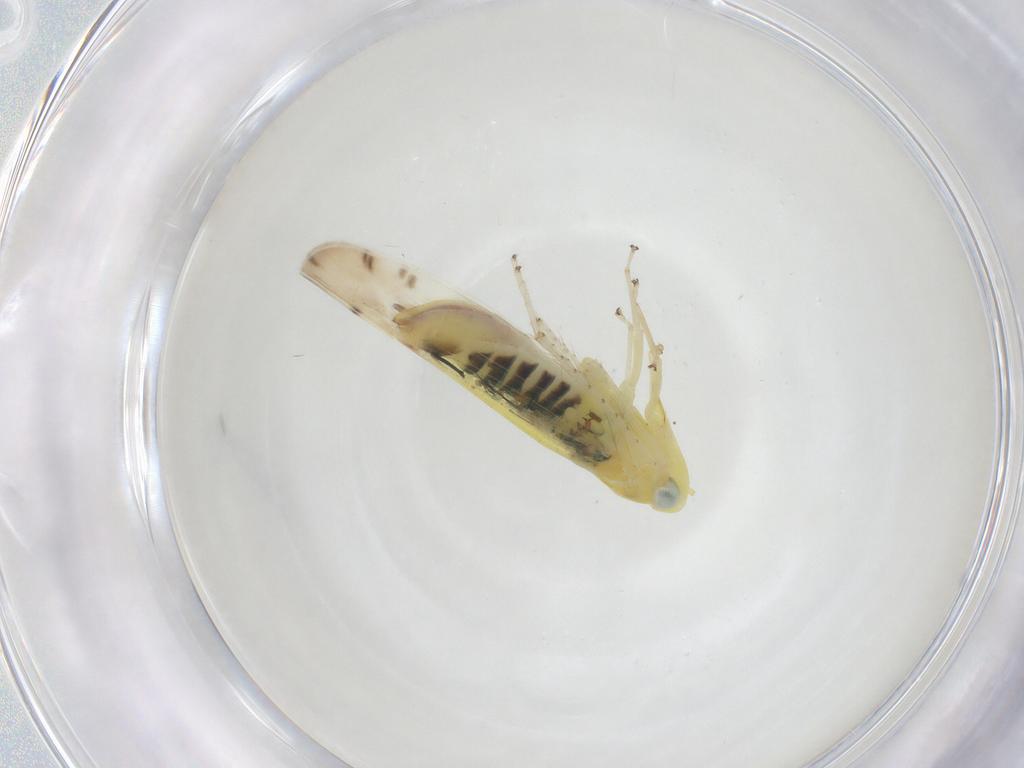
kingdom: Animalia
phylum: Arthropoda
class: Insecta
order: Hemiptera
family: Cicadellidae
